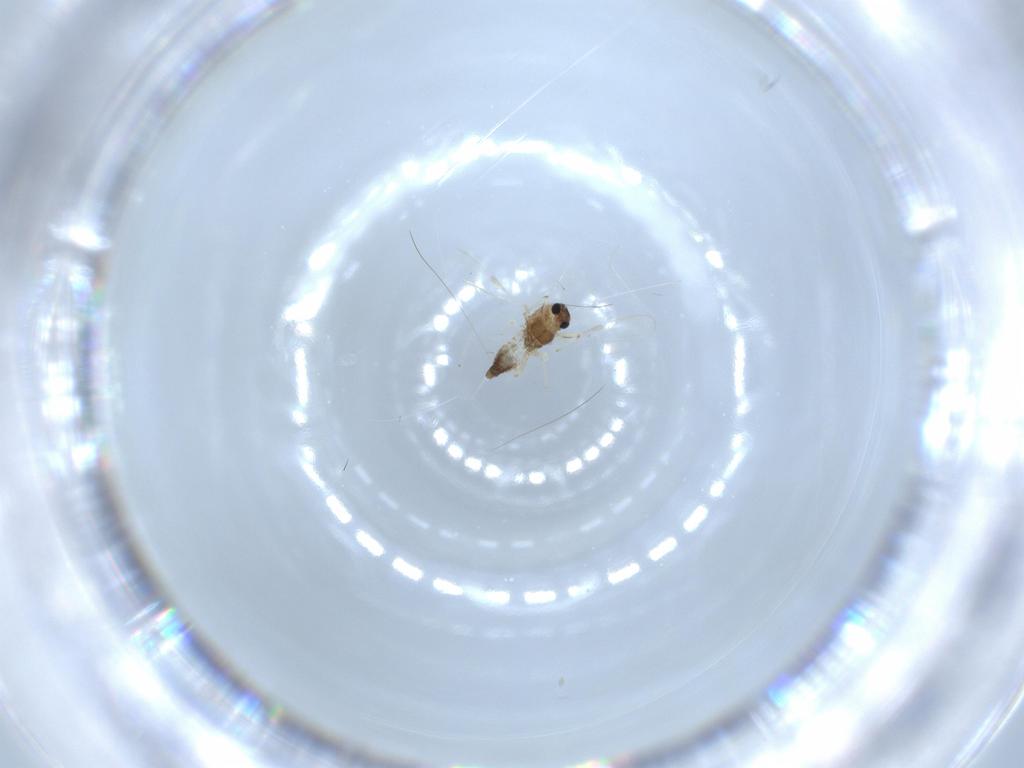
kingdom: Animalia
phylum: Arthropoda
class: Insecta
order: Diptera
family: Chironomidae
